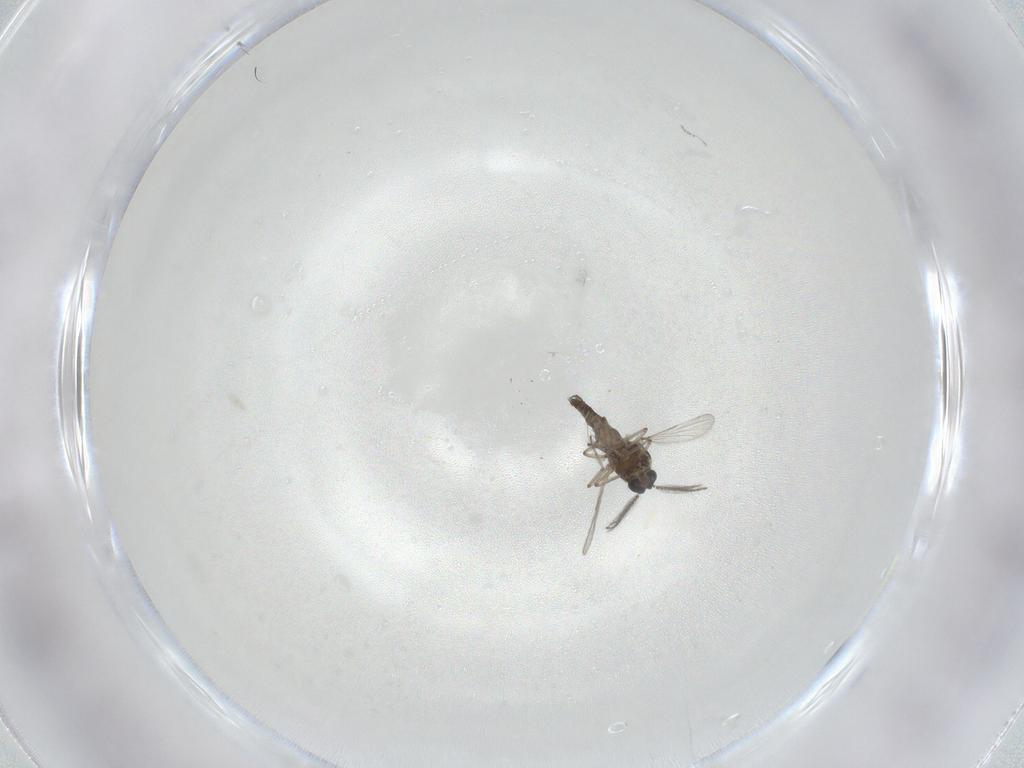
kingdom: Animalia
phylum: Arthropoda
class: Insecta
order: Diptera
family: Ceratopogonidae
